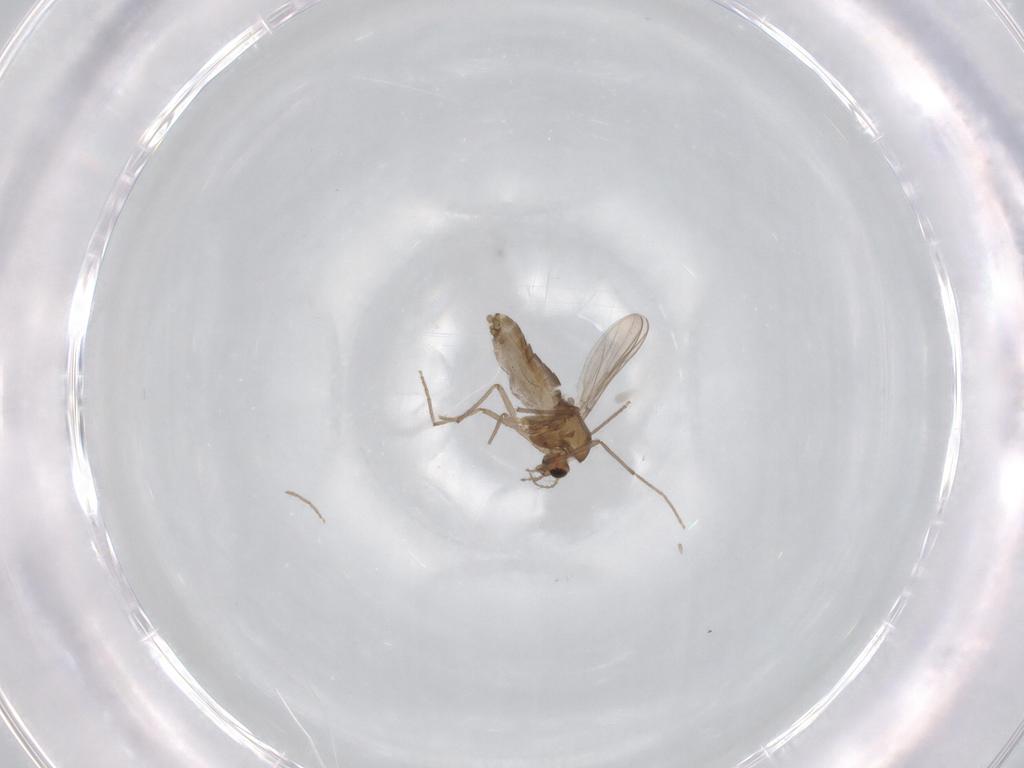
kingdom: Animalia
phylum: Arthropoda
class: Insecta
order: Diptera
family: Chironomidae
